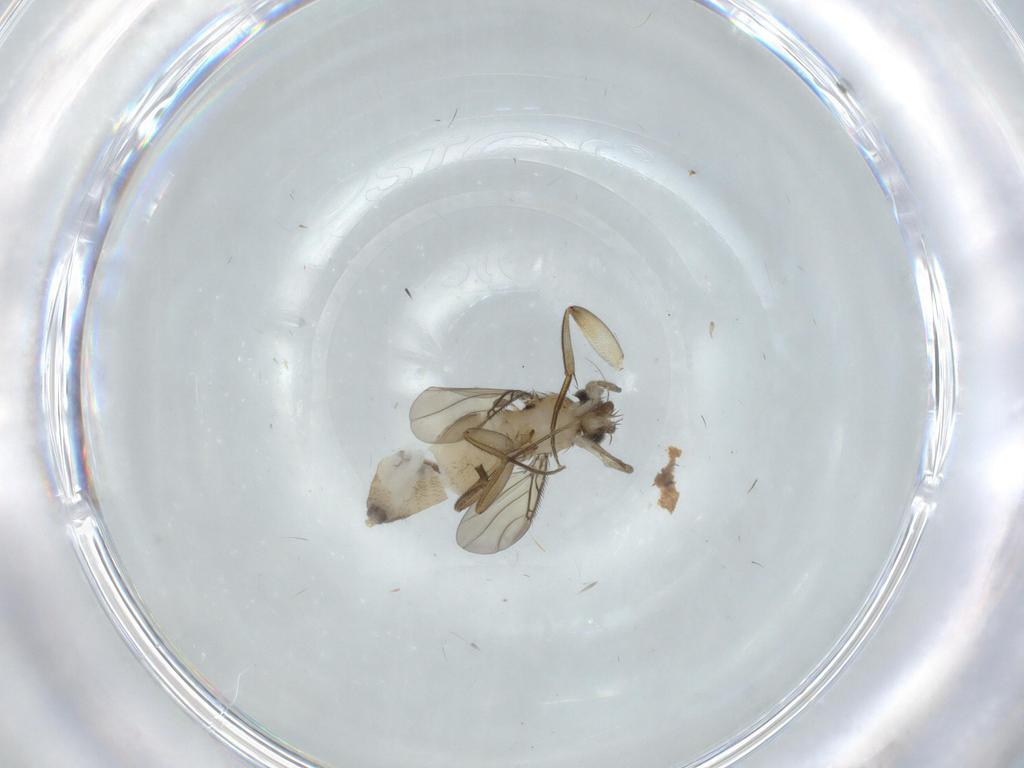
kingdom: Animalia
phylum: Arthropoda
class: Insecta
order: Diptera
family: Phoridae
